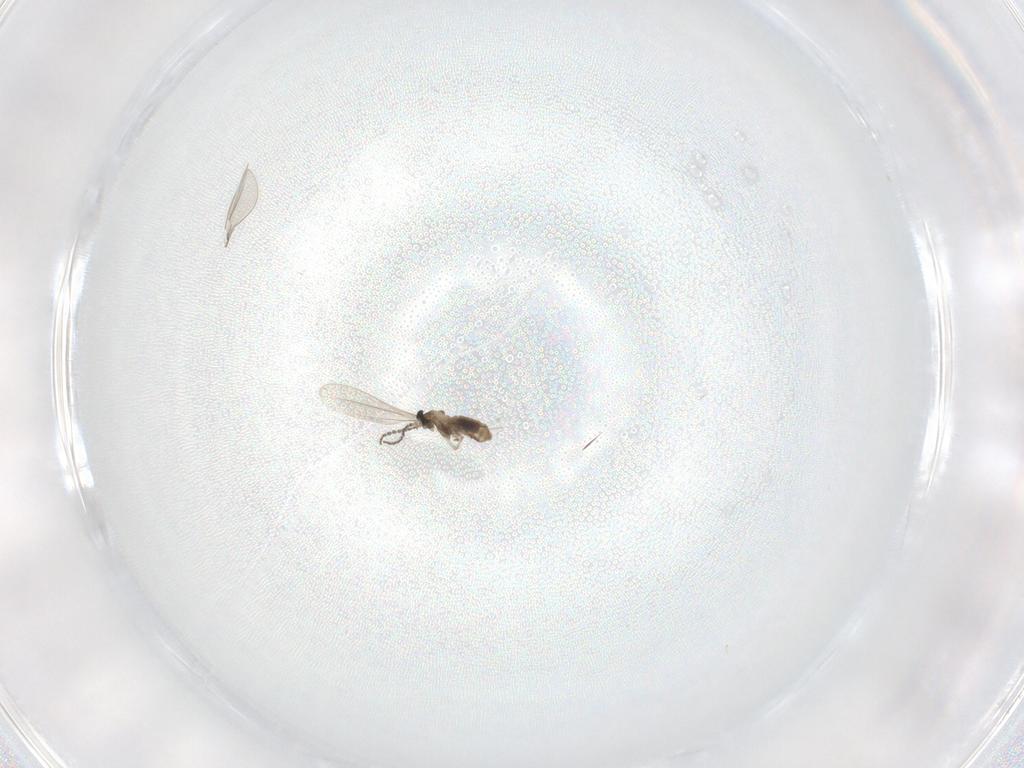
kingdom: Animalia
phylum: Arthropoda
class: Insecta
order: Diptera
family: Cecidomyiidae
